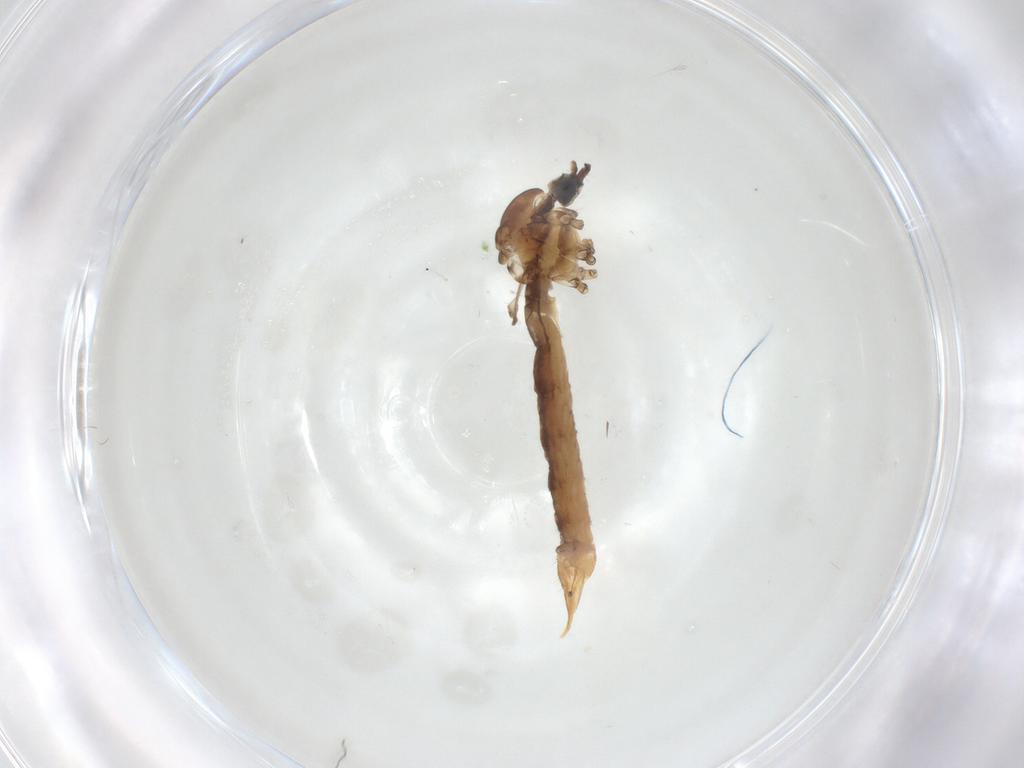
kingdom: Animalia
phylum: Arthropoda
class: Insecta
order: Diptera
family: Limoniidae
